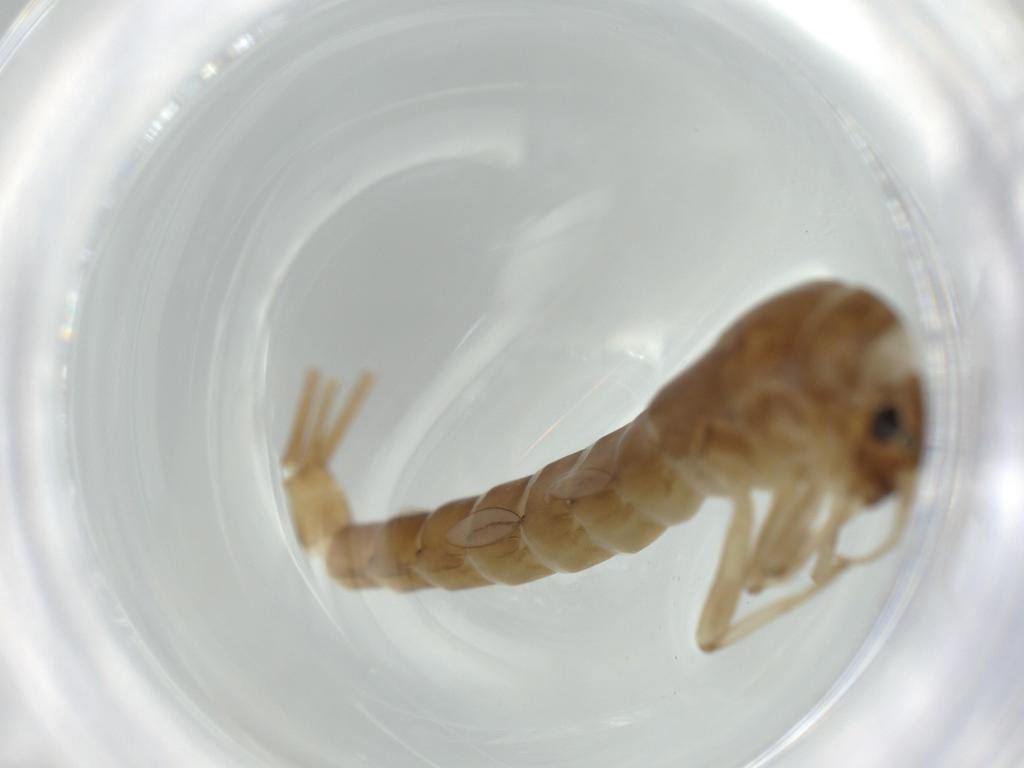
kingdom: Animalia
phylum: Arthropoda
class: Insecta
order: Ephemeroptera
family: Baetidae
